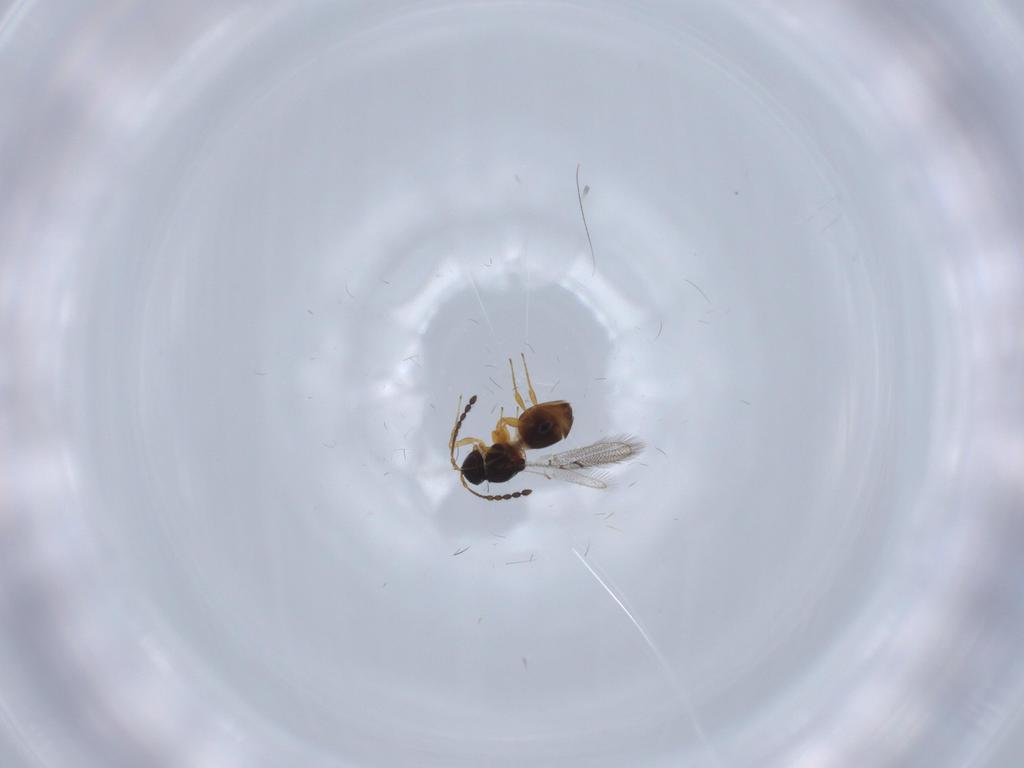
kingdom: Animalia
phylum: Arthropoda
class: Insecta
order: Hymenoptera
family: Figitidae
